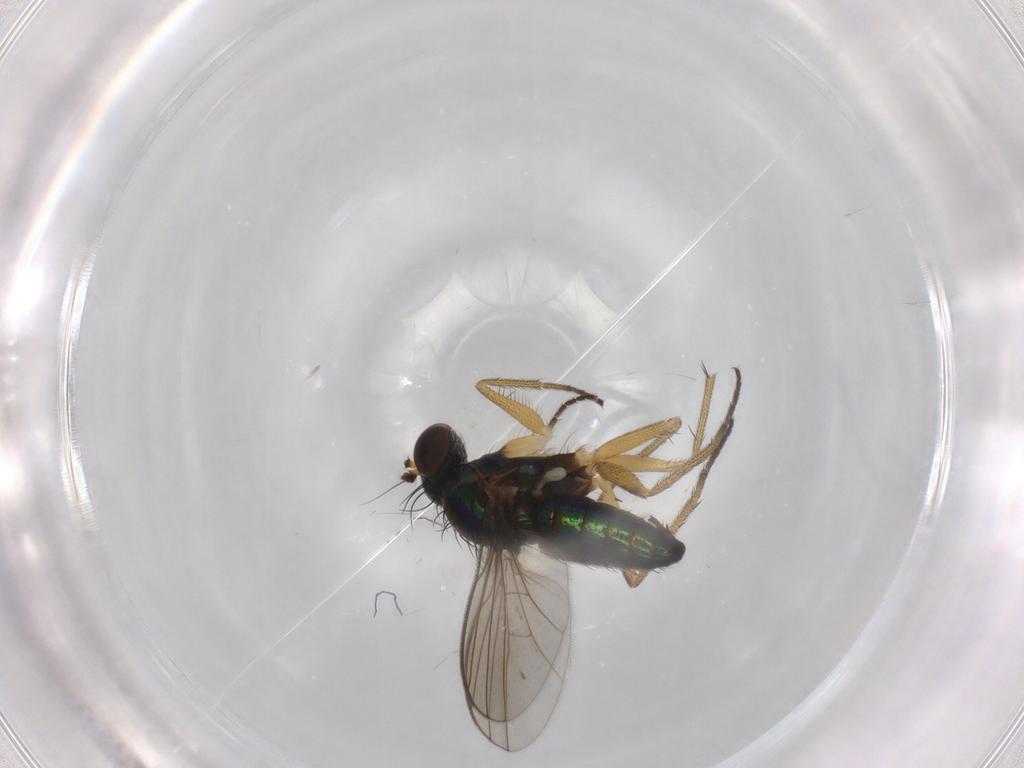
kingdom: Animalia
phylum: Arthropoda
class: Insecta
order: Diptera
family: Dolichopodidae
